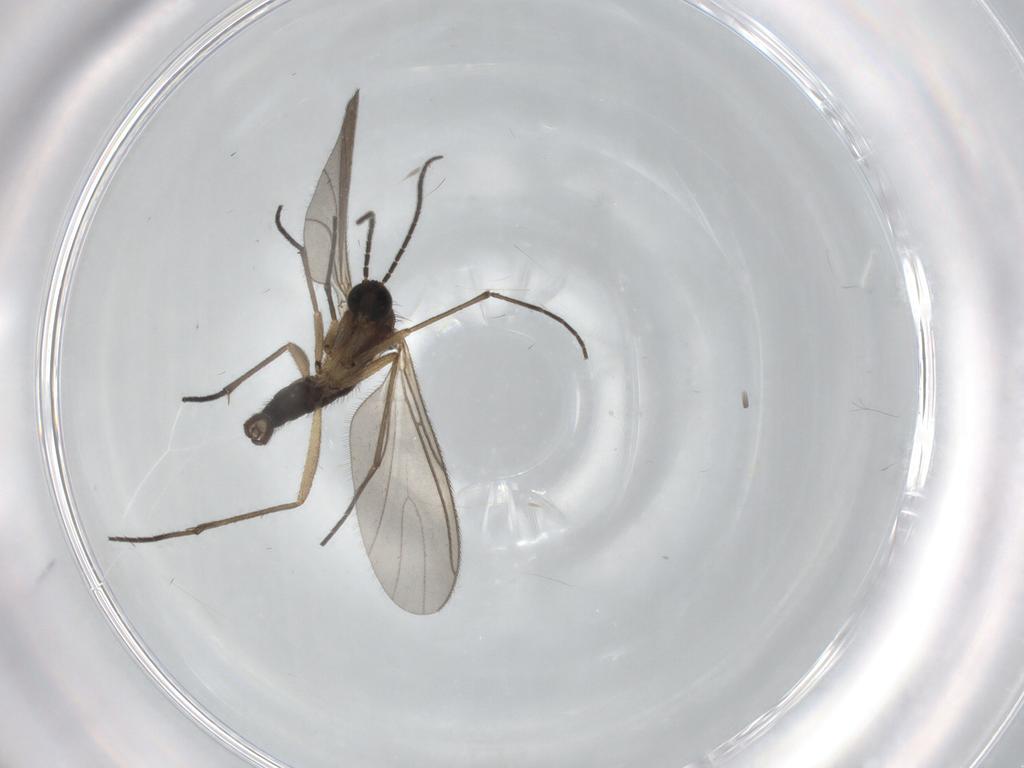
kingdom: Animalia
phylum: Arthropoda
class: Insecta
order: Diptera
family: Sciaridae
